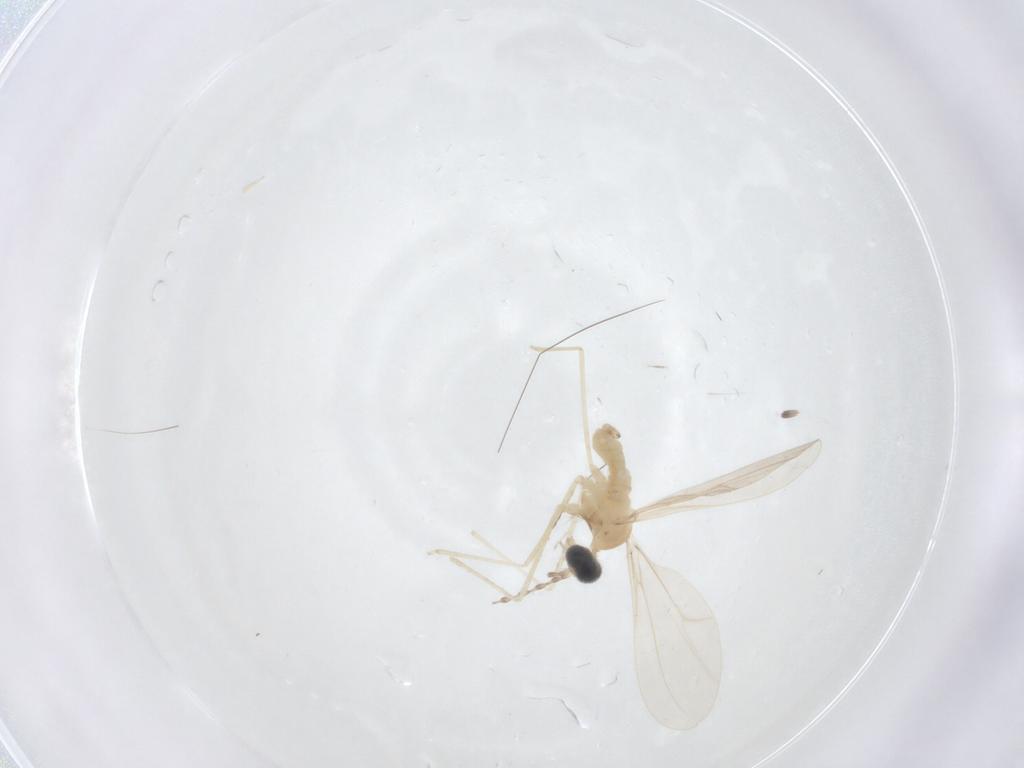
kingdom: Animalia
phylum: Arthropoda
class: Insecta
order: Diptera
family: Cecidomyiidae
